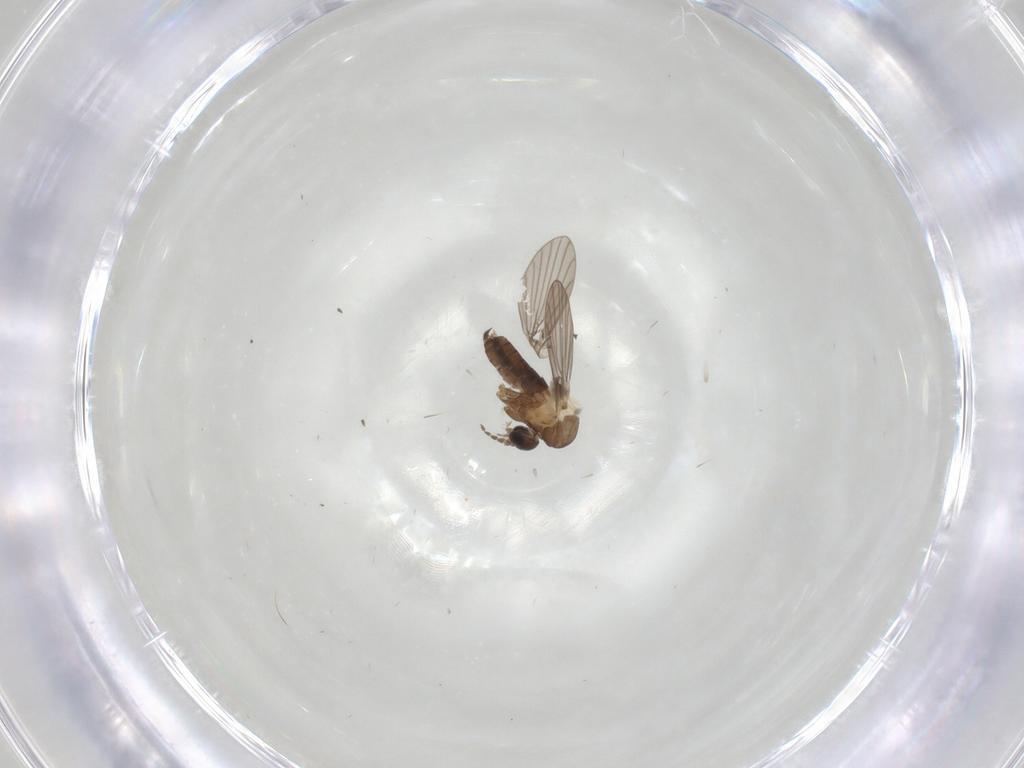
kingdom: Animalia
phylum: Arthropoda
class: Insecta
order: Diptera
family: Psychodidae
